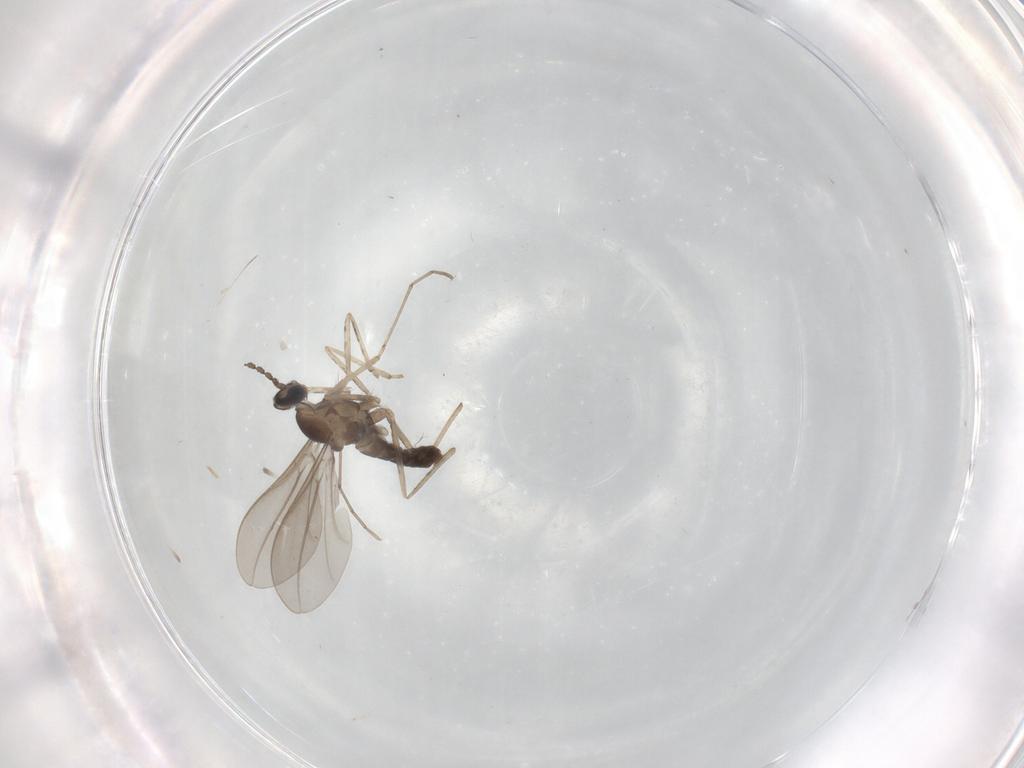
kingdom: Animalia
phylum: Arthropoda
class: Insecta
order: Diptera
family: Cecidomyiidae
